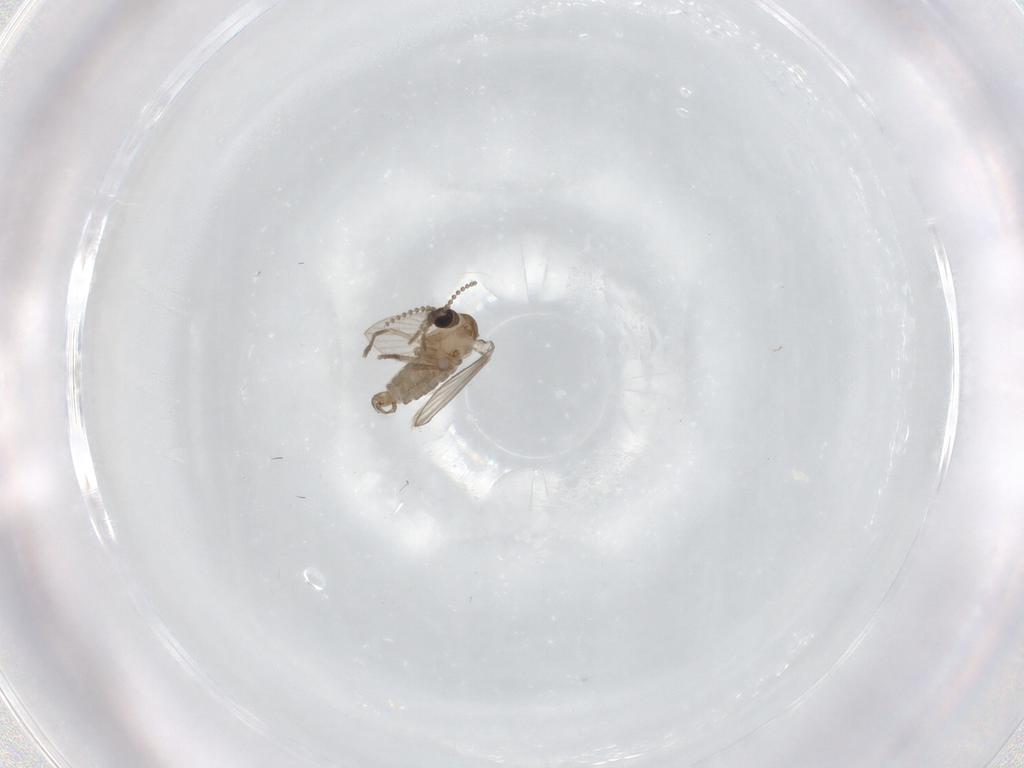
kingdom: Animalia
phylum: Arthropoda
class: Insecta
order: Diptera
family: Psychodidae
